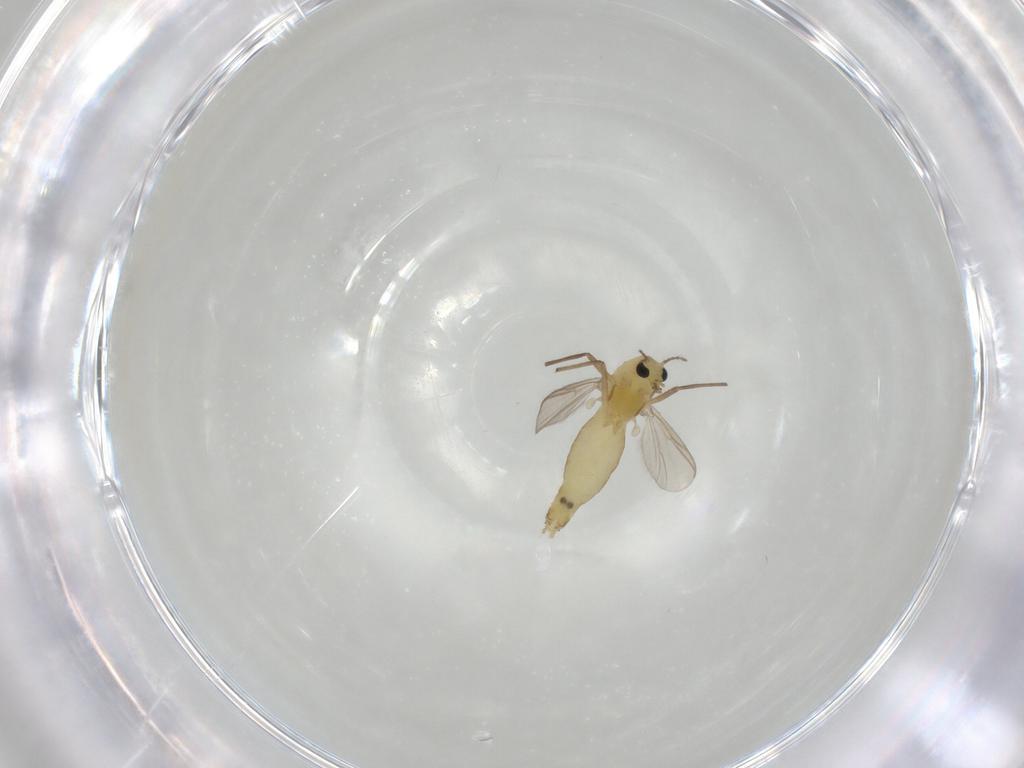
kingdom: Animalia
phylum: Arthropoda
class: Insecta
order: Diptera
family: Chironomidae
